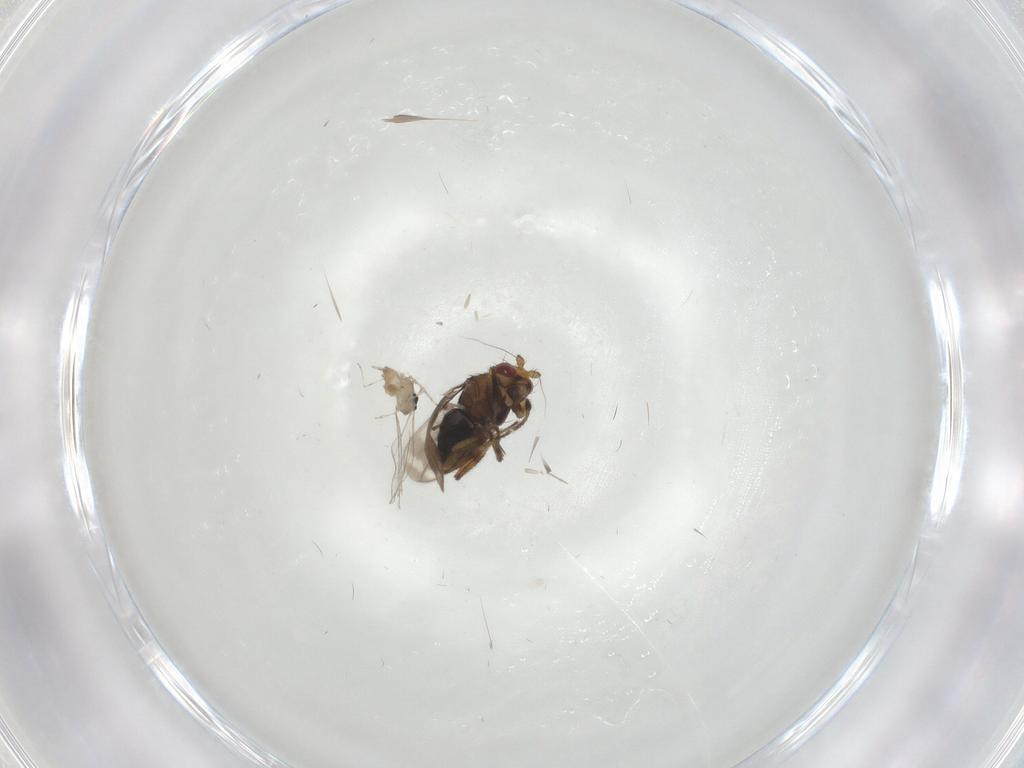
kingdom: Animalia
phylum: Arthropoda
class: Insecta
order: Diptera
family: Sphaeroceridae
